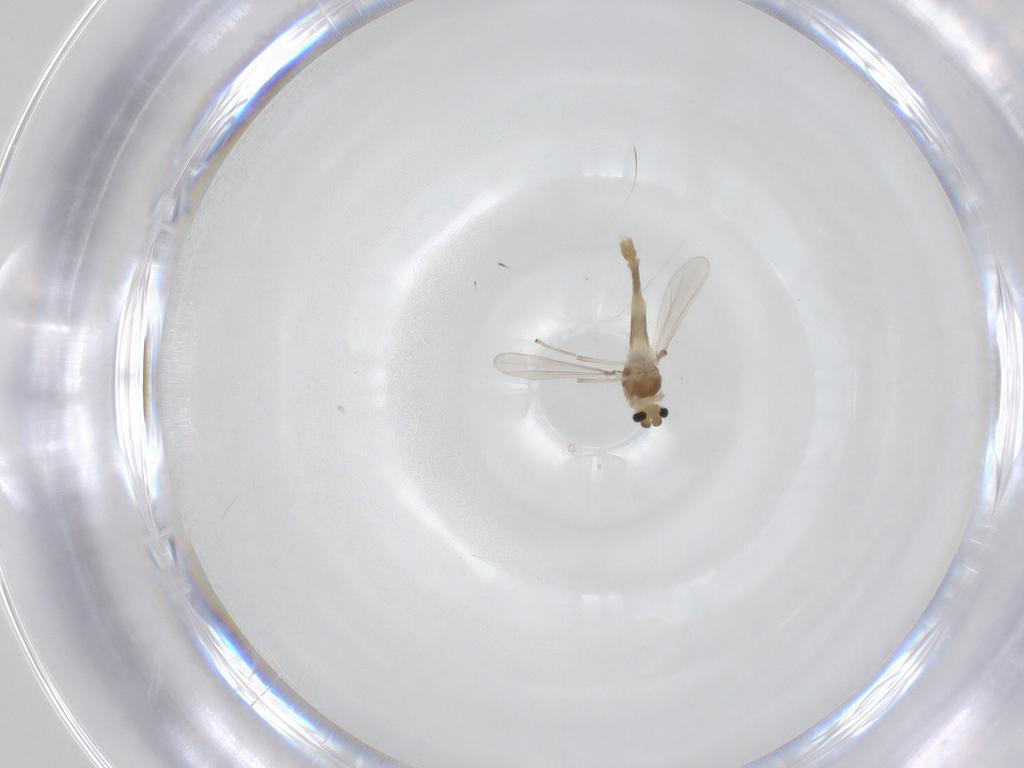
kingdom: Animalia
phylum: Arthropoda
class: Insecta
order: Diptera
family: Chironomidae
